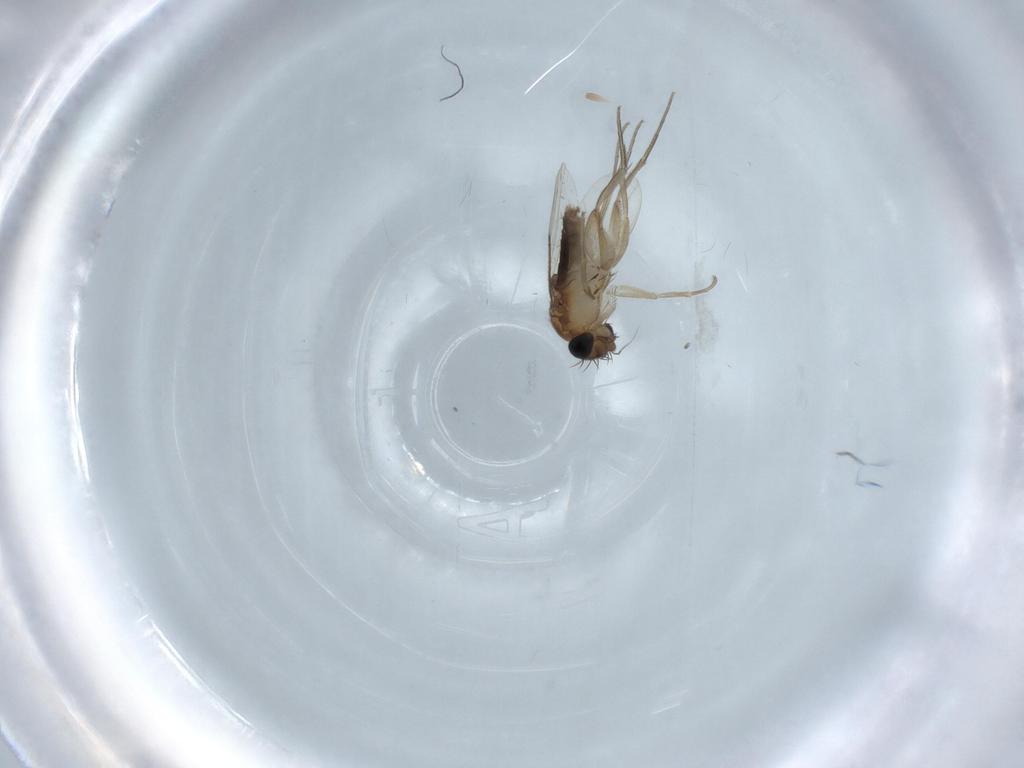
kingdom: Animalia
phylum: Arthropoda
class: Insecta
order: Diptera
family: Phoridae
